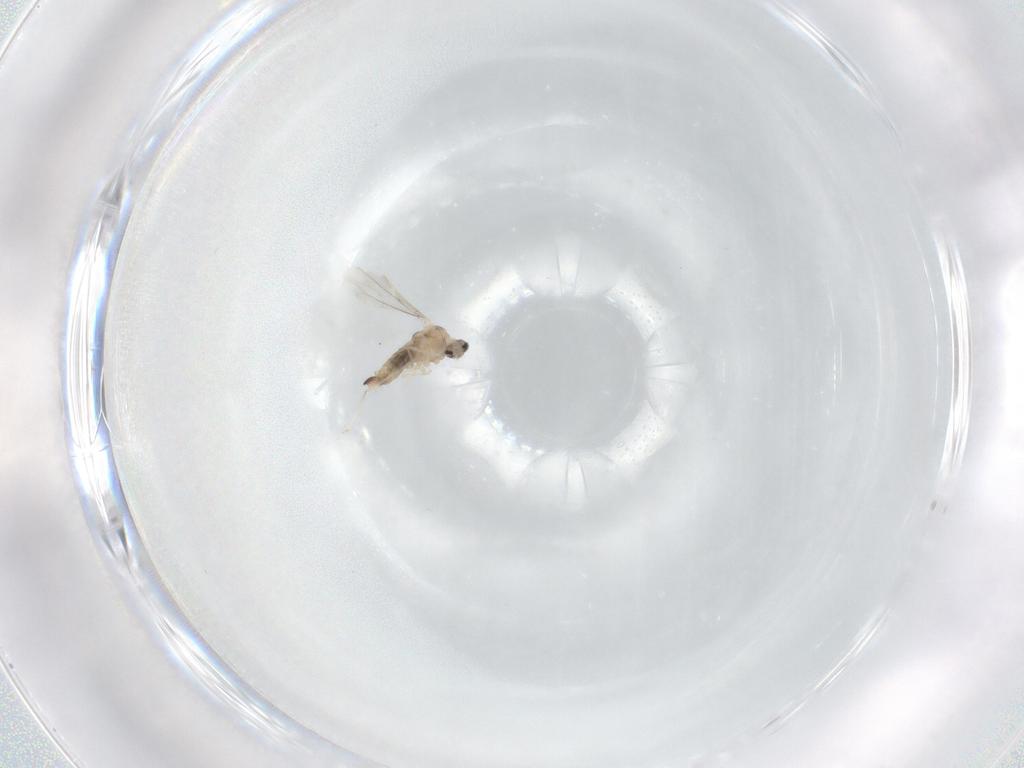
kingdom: Animalia
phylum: Arthropoda
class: Insecta
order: Diptera
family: Cecidomyiidae
